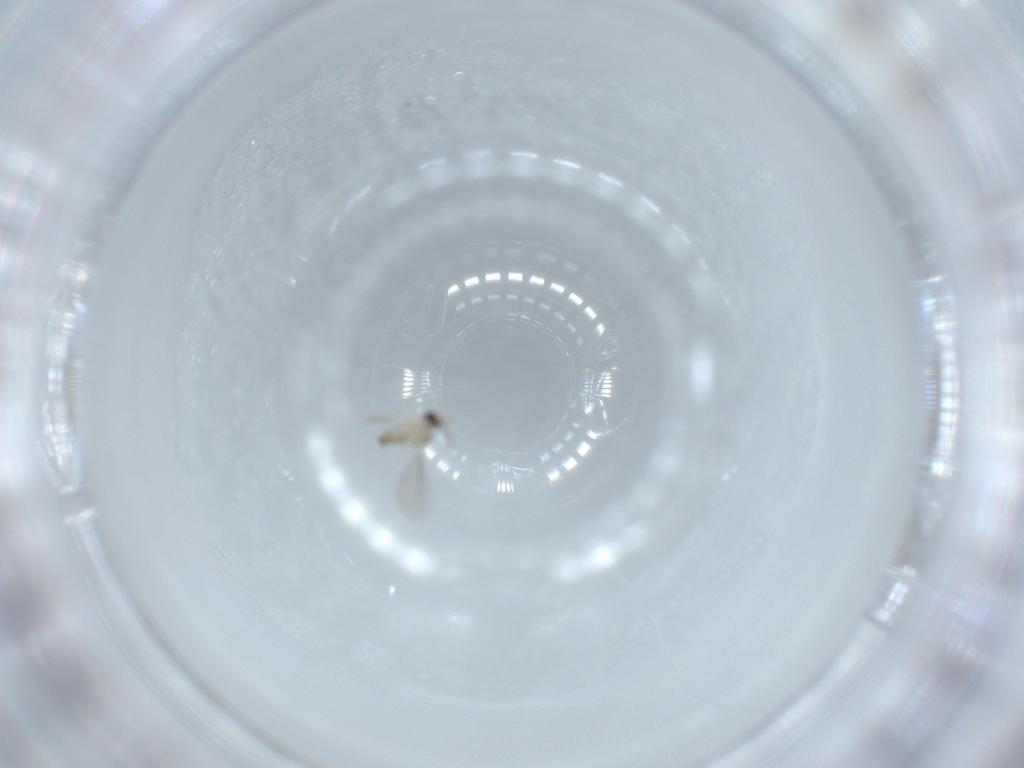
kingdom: Animalia
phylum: Arthropoda
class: Insecta
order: Diptera
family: Cecidomyiidae
